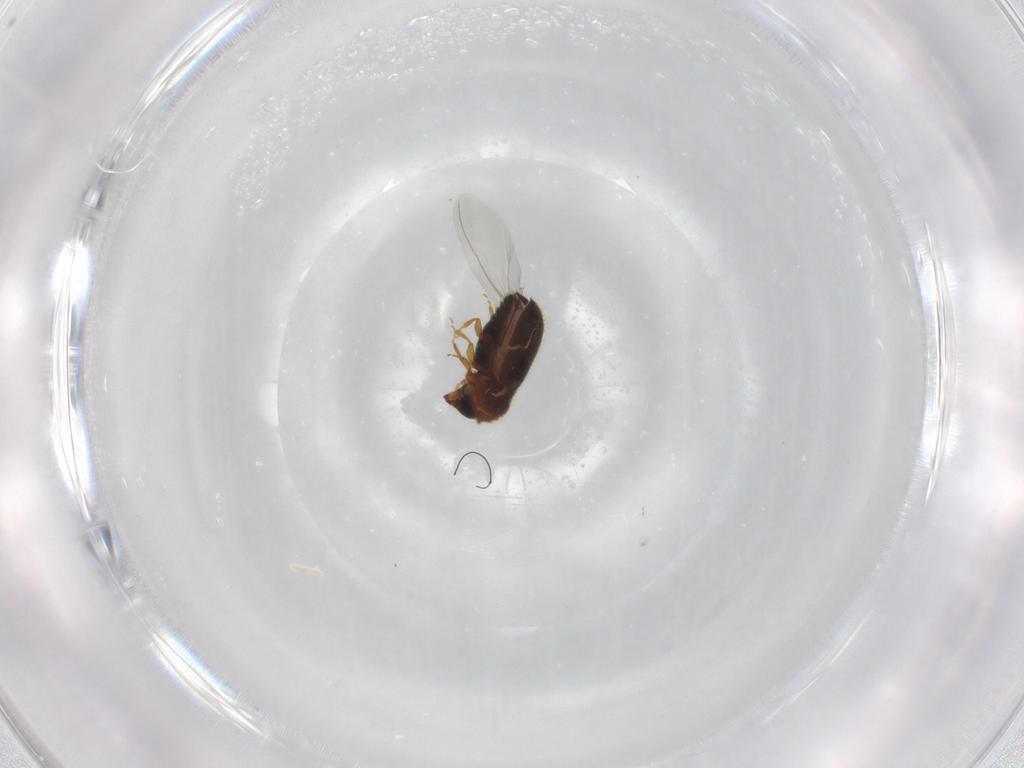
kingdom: Animalia
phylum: Arthropoda
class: Insecta
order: Coleoptera
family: Curculionidae
